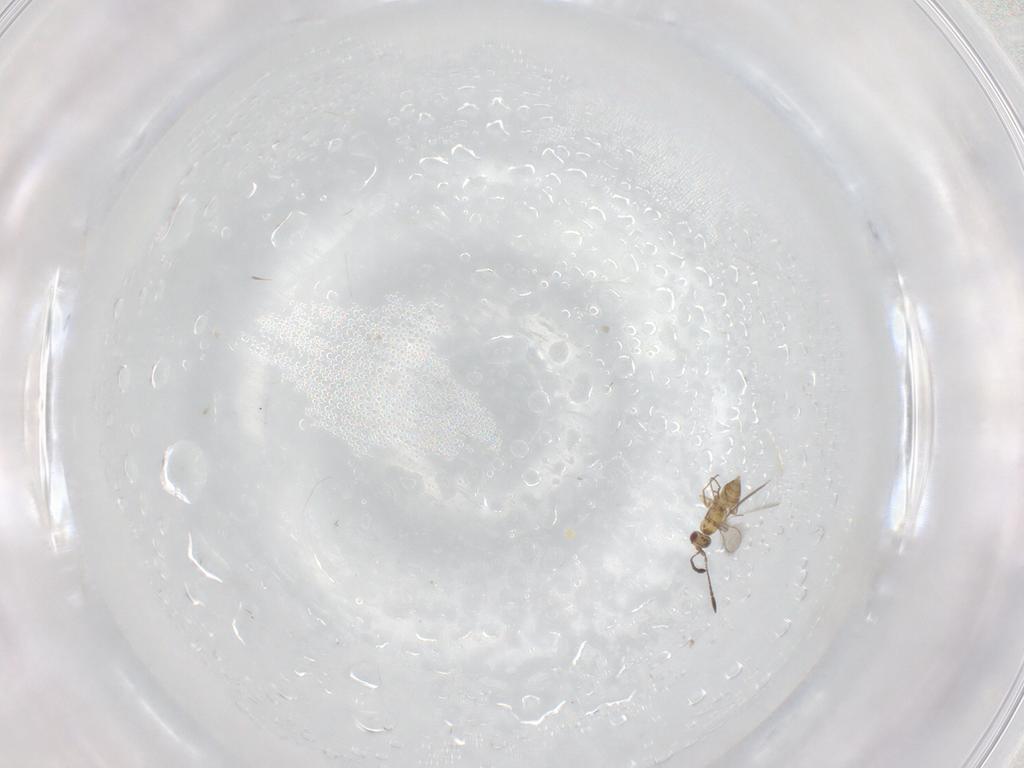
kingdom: Animalia
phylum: Arthropoda
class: Insecta
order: Hymenoptera
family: Mymaridae
